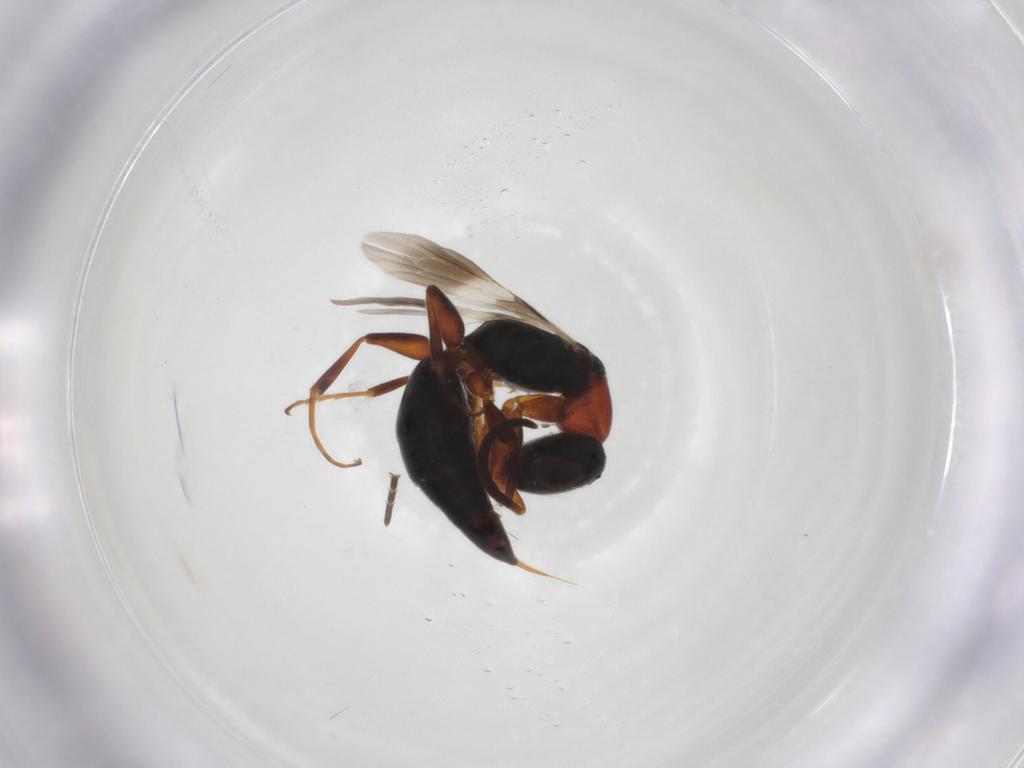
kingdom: Animalia
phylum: Arthropoda
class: Insecta
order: Hymenoptera
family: Bethylidae
